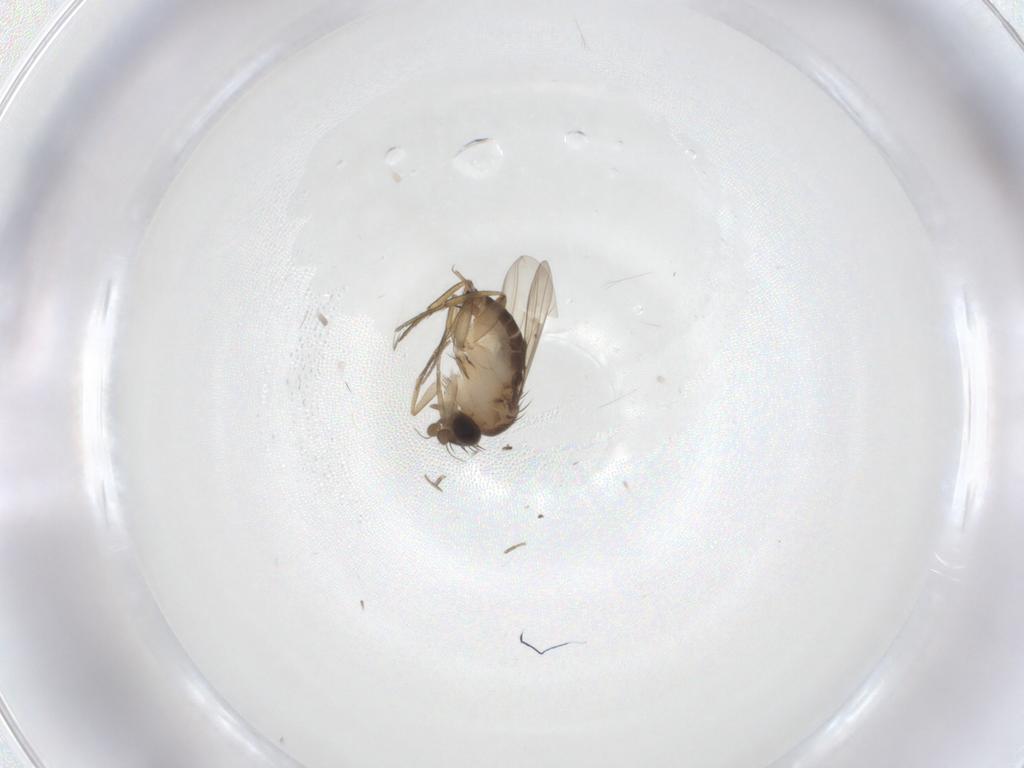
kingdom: Animalia
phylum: Arthropoda
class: Insecta
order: Diptera
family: Phoridae
